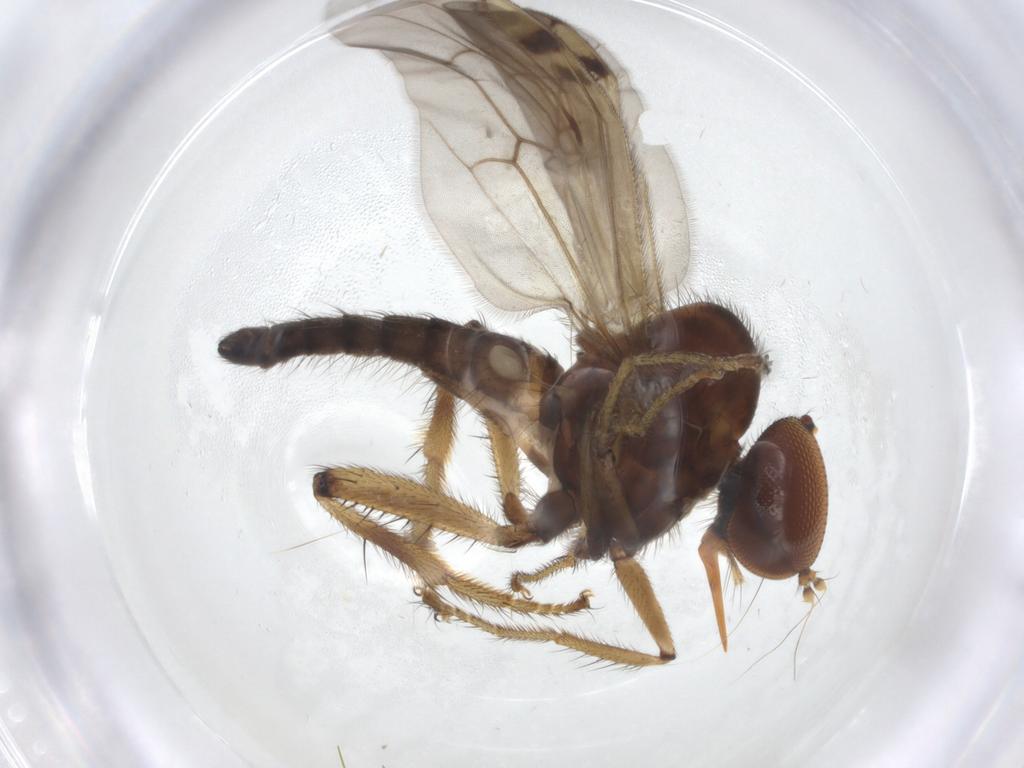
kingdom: Animalia
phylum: Arthropoda
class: Insecta
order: Diptera
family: Hybotidae
